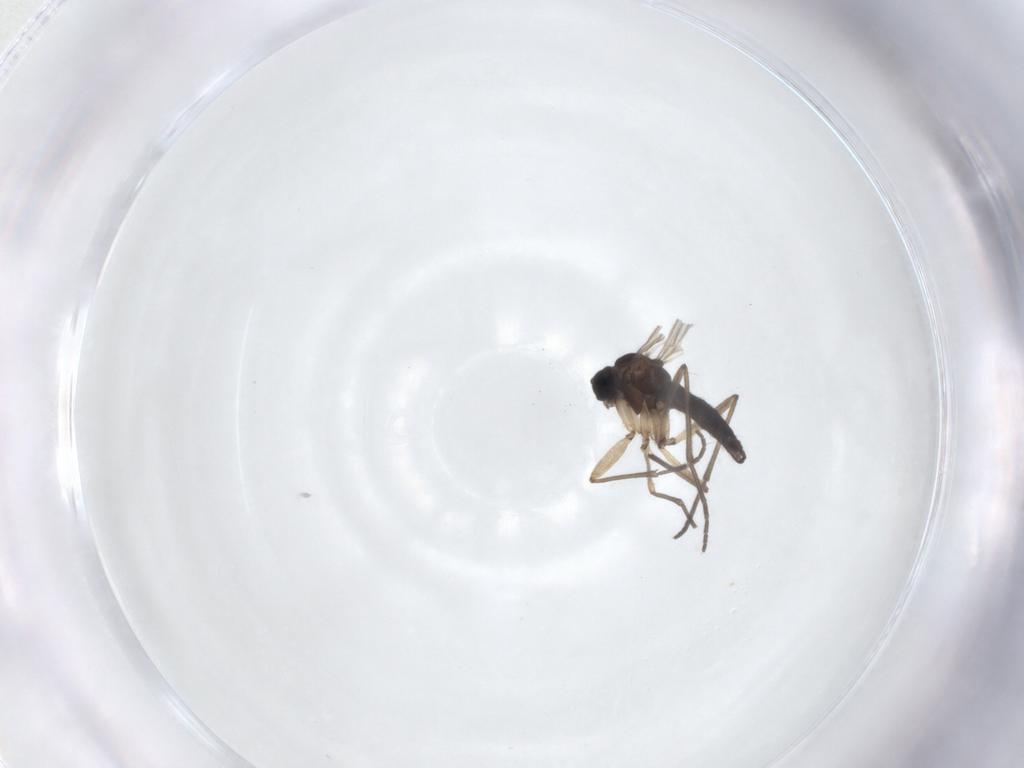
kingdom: Animalia
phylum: Arthropoda
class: Insecta
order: Diptera
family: Sciaridae
